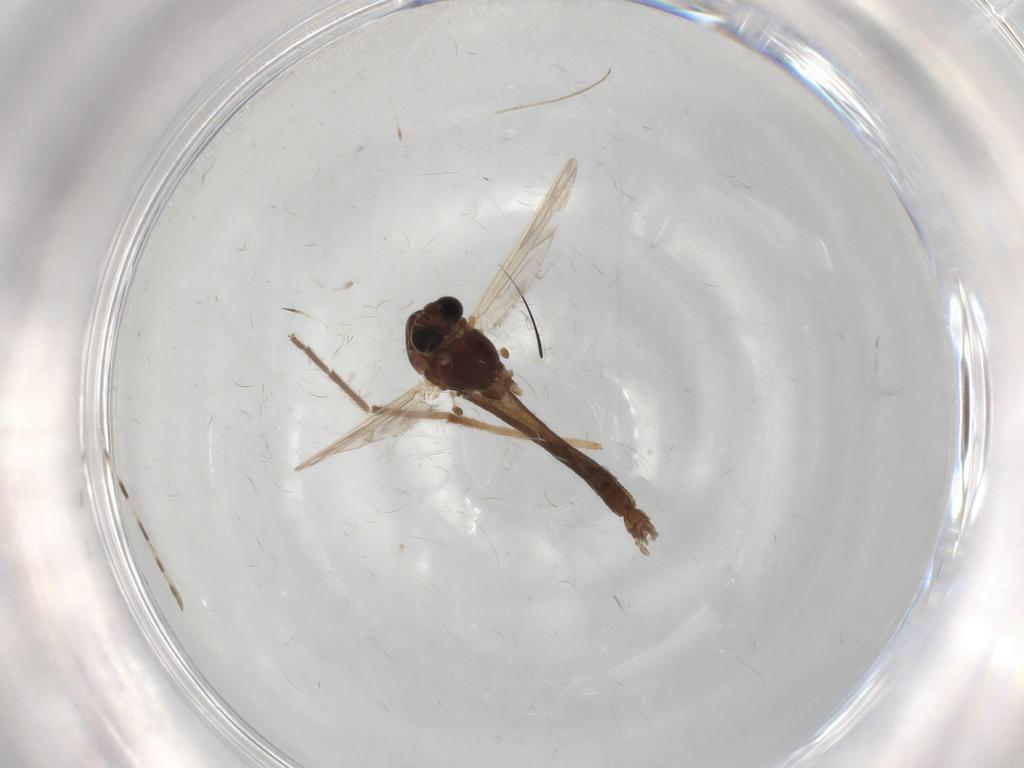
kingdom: Animalia
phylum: Arthropoda
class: Insecta
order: Diptera
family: Chironomidae
